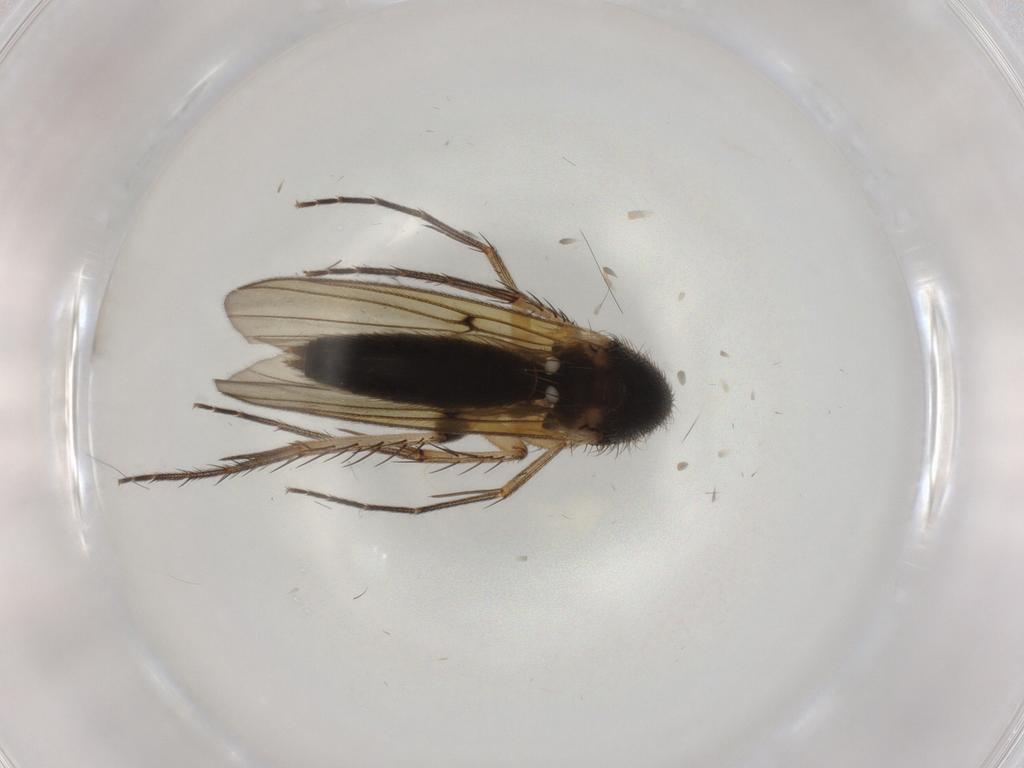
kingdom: Animalia
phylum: Arthropoda
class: Insecta
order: Diptera
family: Chironomidae
